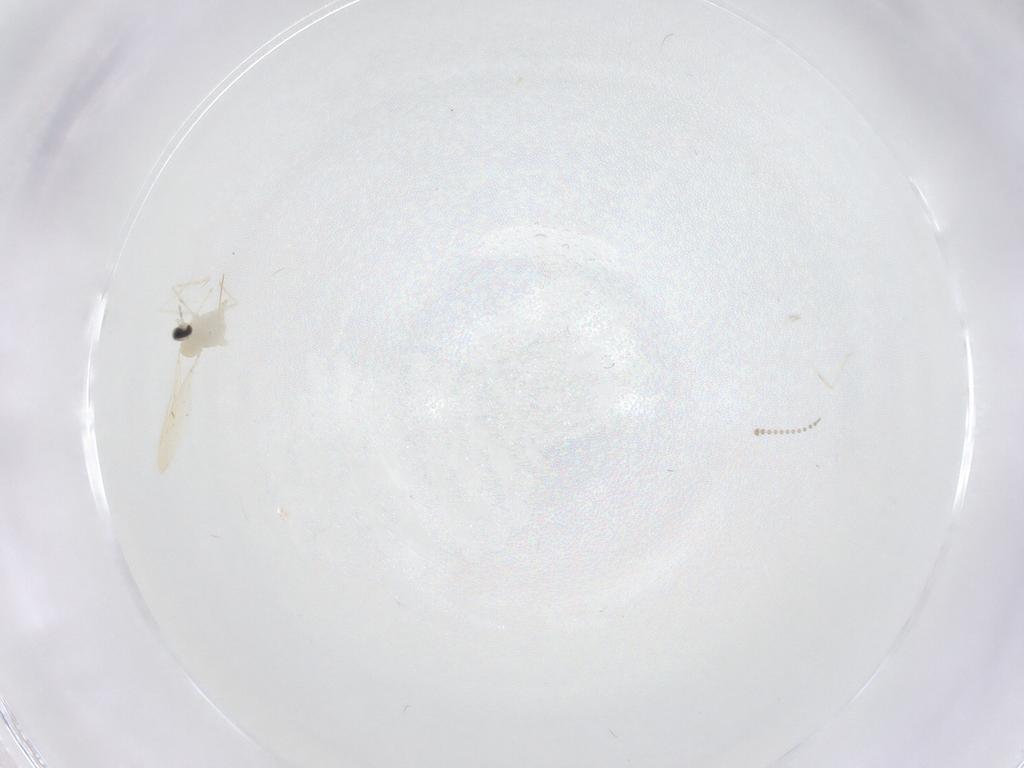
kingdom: Animalia
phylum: Arthropoda
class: Insecta
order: Diptera
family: Cecidomyiidae
